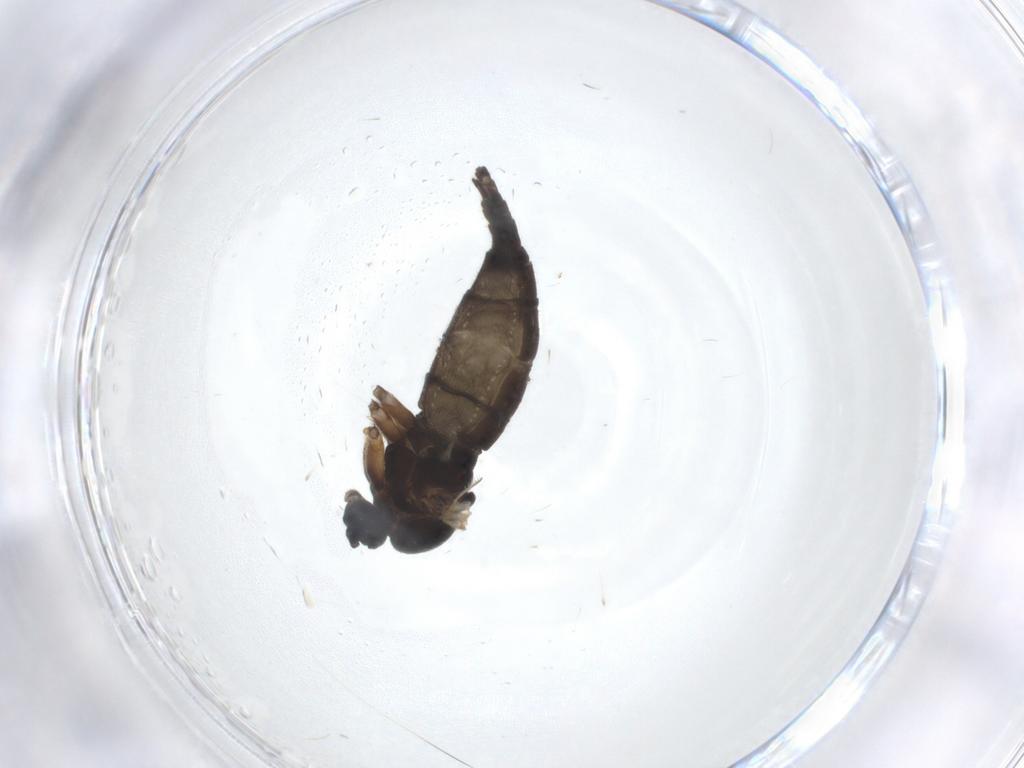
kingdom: Animalia
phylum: Arthropoda
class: Insecta
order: Diptera
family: Sciaridae
